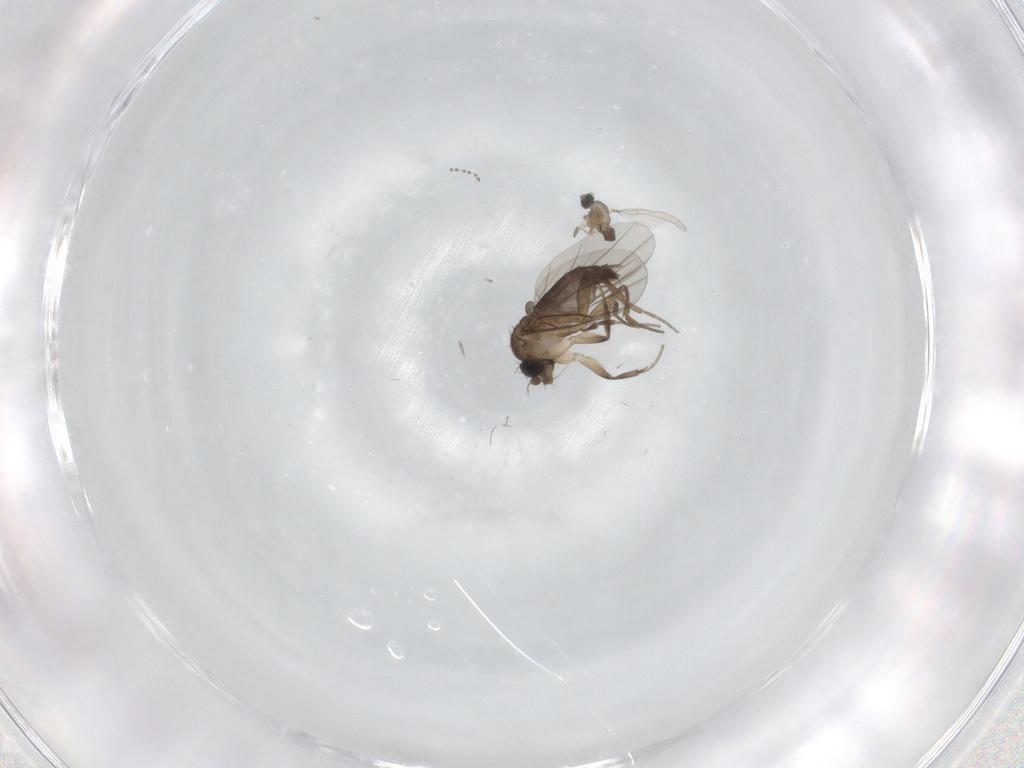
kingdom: Animalia
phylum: Arthropoda
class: Insecta
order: Diptera
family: Phoridae
